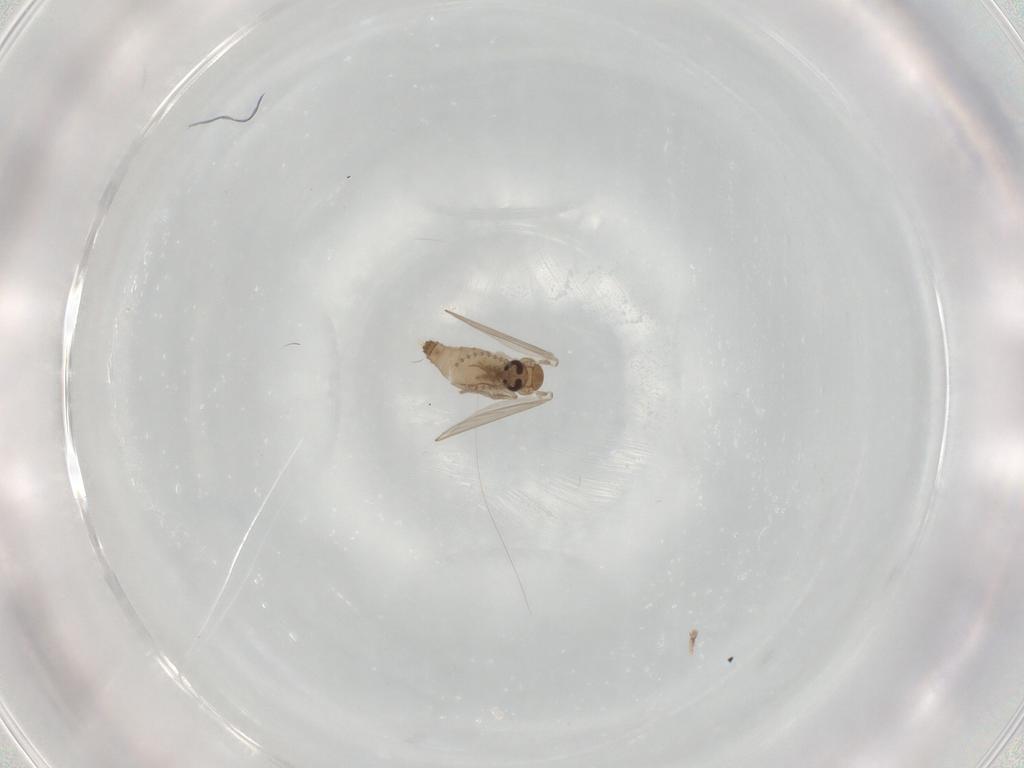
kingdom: Animalia
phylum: Arthropoda
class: Insecta
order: Diptera
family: Psychodidae
